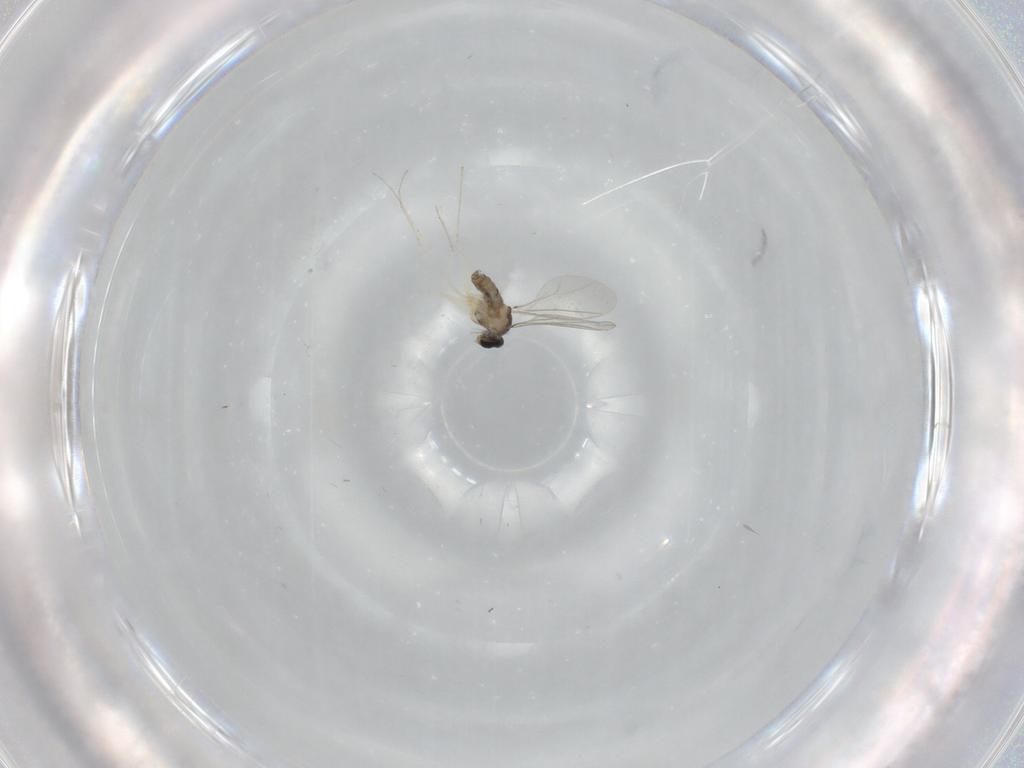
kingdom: Animalia
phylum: Arthropoda
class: Insecta
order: Diptera
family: Cecidomyiidae
